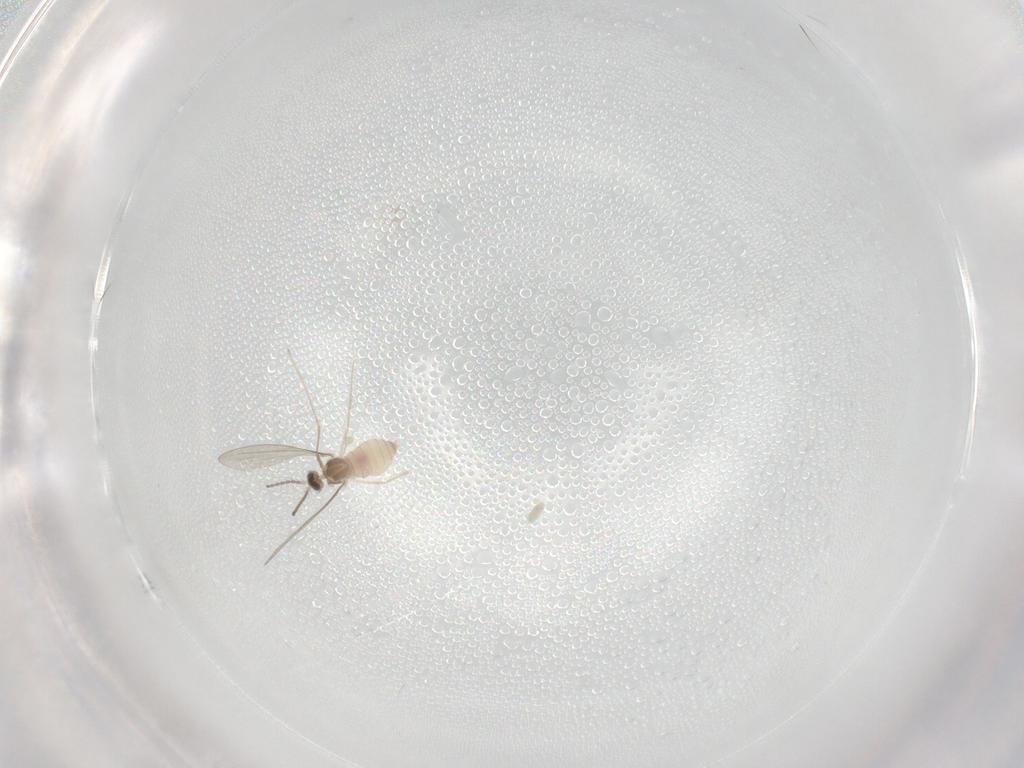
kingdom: Animalia
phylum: Arthropoda
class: Insecta
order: Diptera
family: Cecidomyiidae
